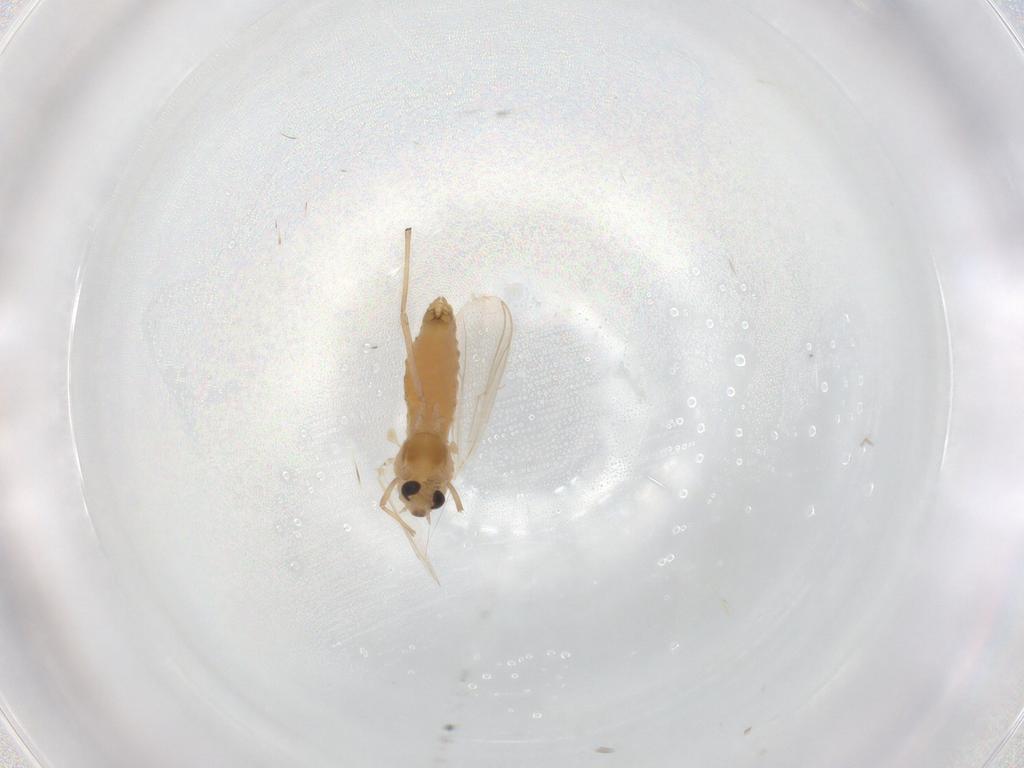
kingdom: Animalia
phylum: Arthropoda
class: Insecta
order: Diptera
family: Chironomidae
